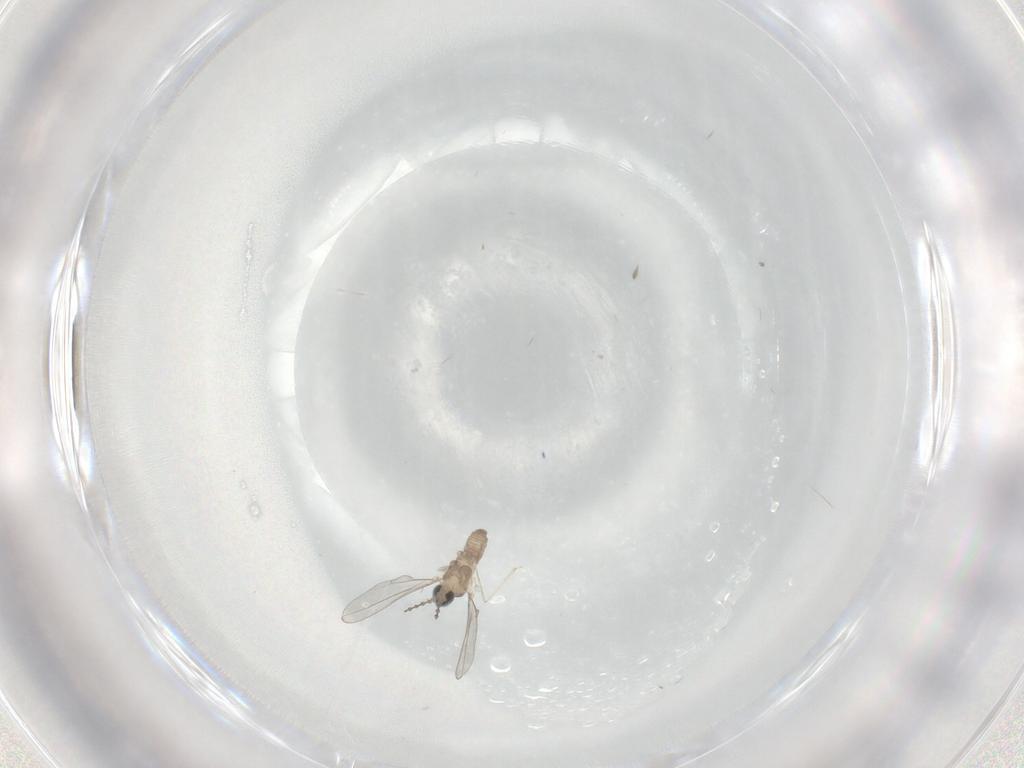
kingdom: Animalia
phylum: Arthropoda
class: Insecta
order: Diptera
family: Cecidomyiidae
